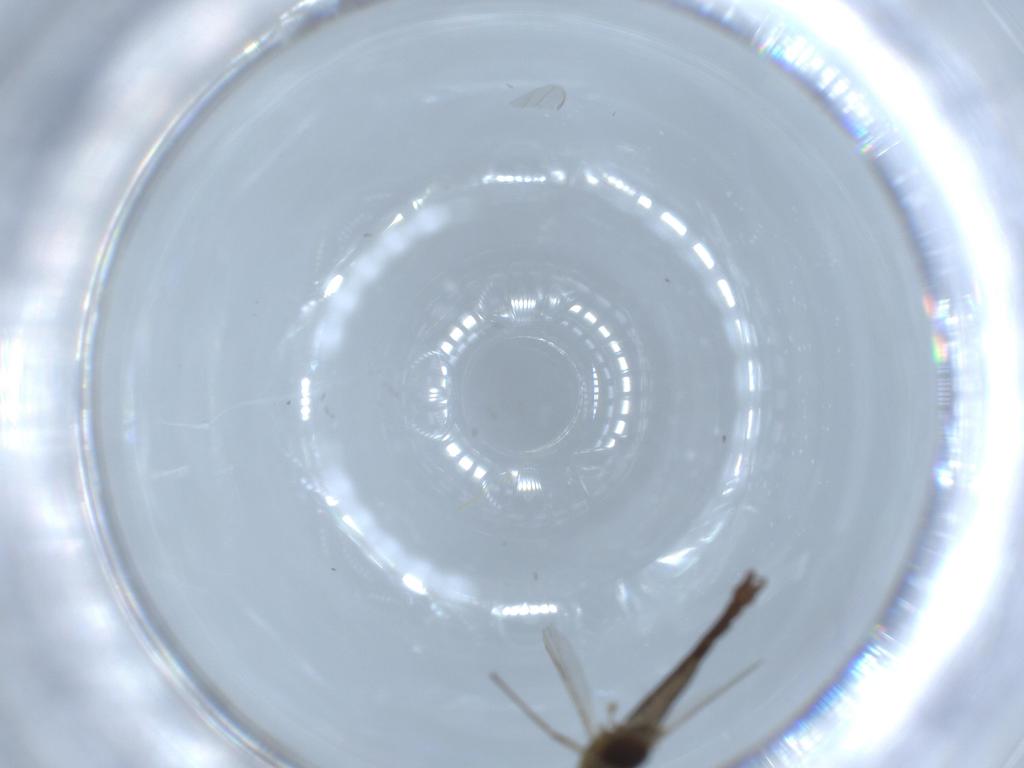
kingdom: Animalia
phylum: Arthropoda
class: Insecta
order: Diptera
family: Chironomidae
